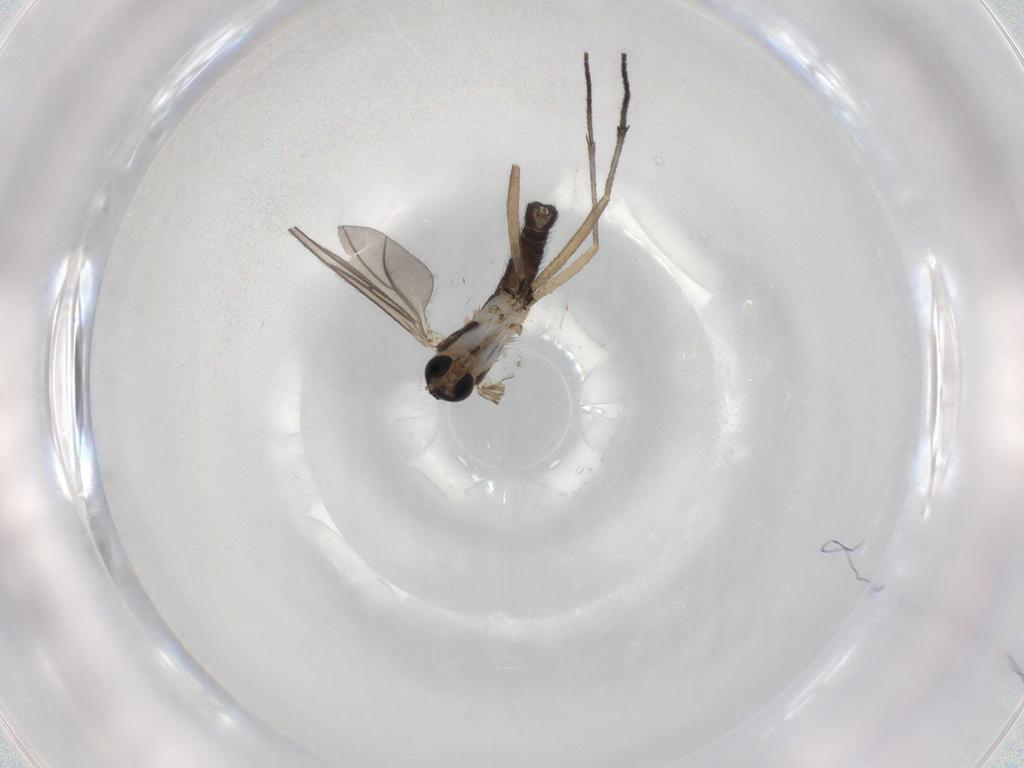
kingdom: Animalia
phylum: Arthropoda
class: Insecta
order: Diptera
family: Sciaridae
